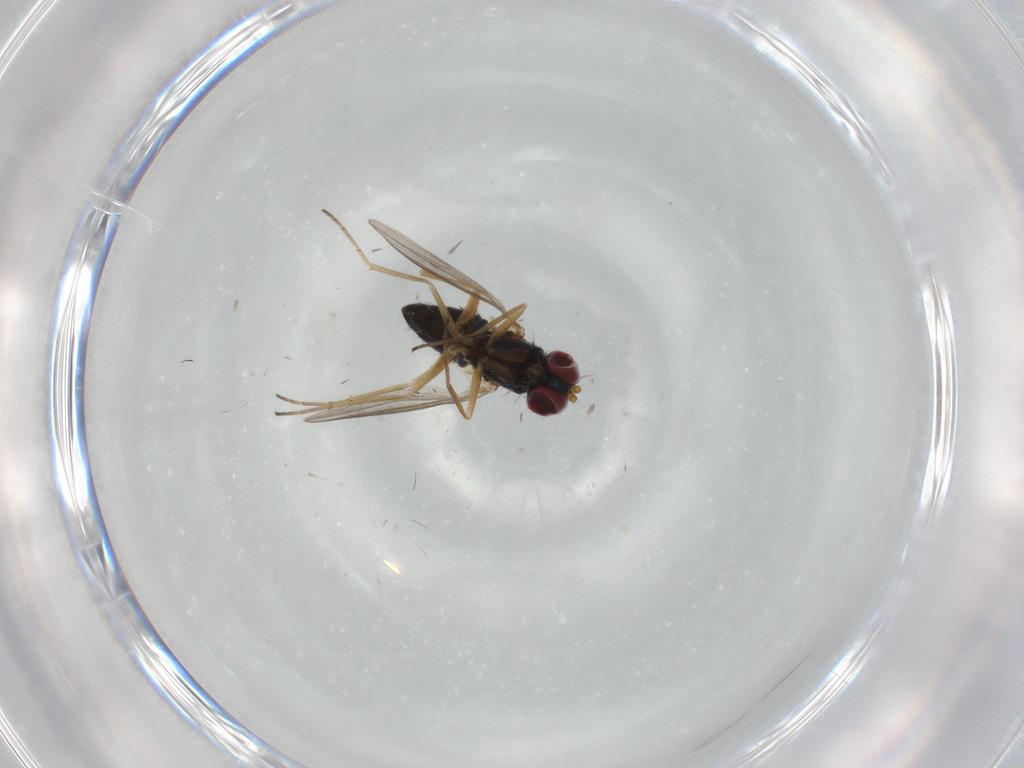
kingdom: Animalia
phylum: Arthropoda
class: Insecta
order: Diptera
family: Dolichopodidae
